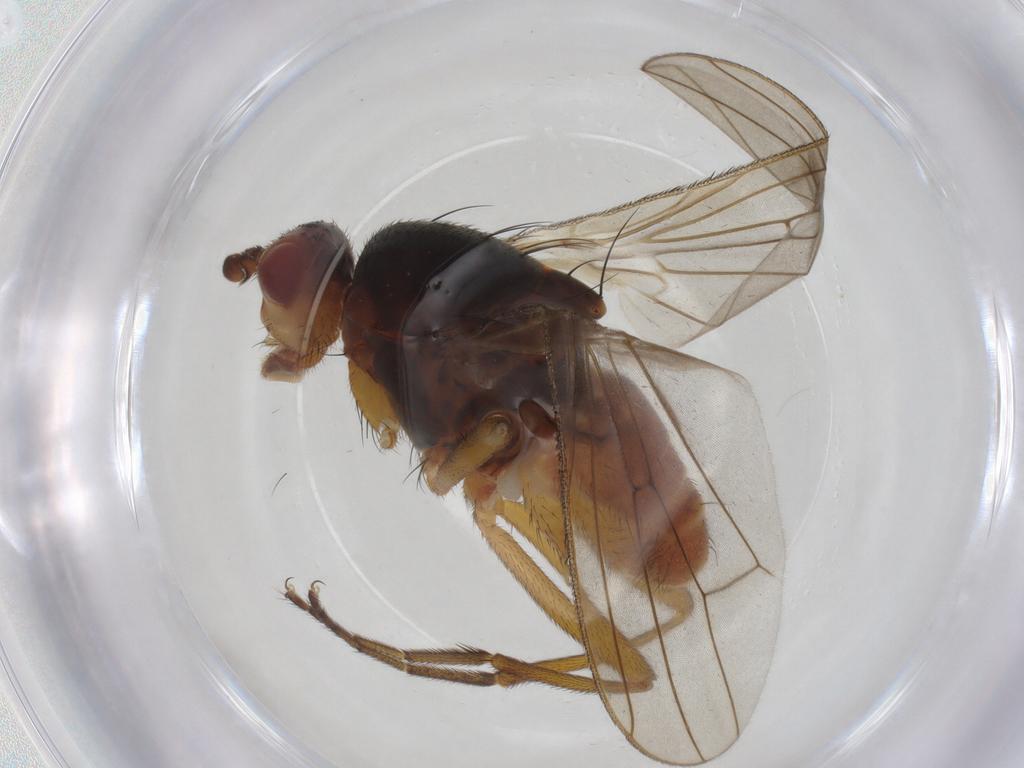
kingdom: Animalia
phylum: Arthropoda
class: Insecta
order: Diptera
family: Heleomyzidae
